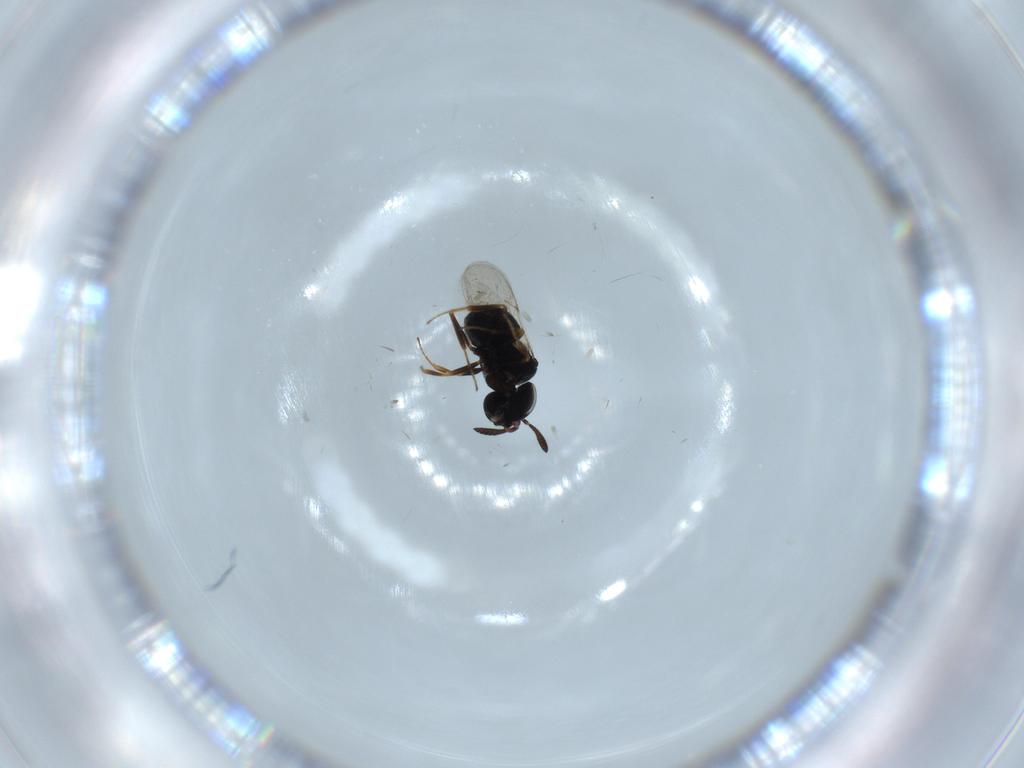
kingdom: Animalia
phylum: Arthropoda
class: Insecta
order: Hymenoptera
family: Scelionidae
